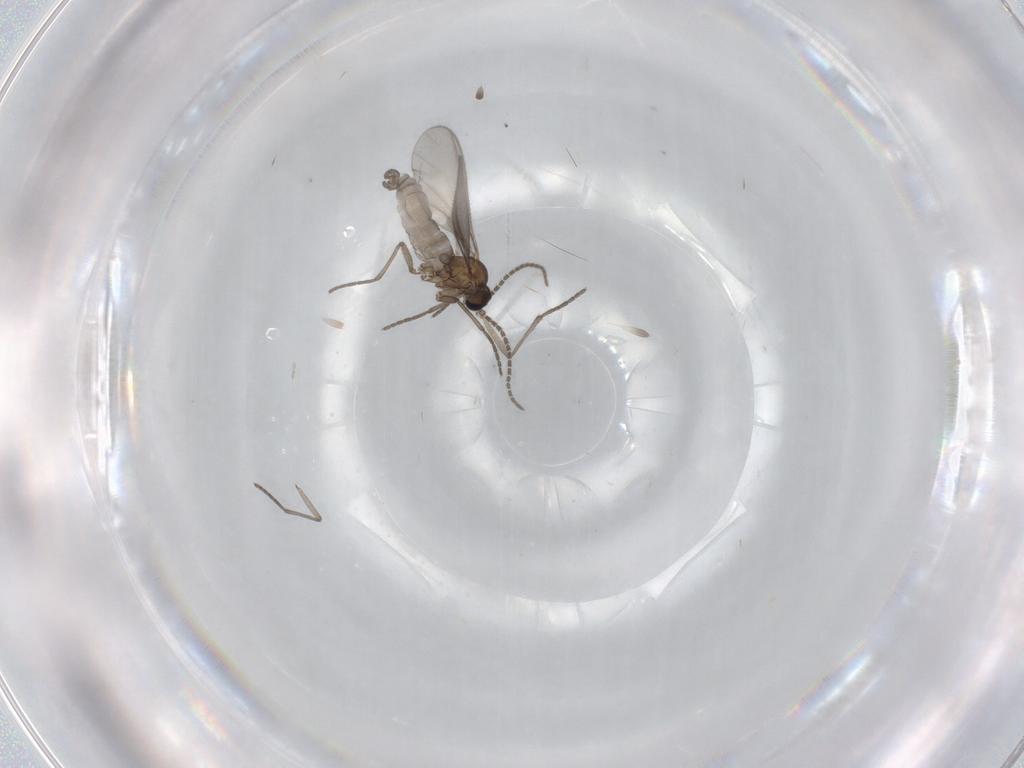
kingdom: Animalia
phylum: Arthropoda
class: Insecta
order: Diptera
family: Sciaridae
